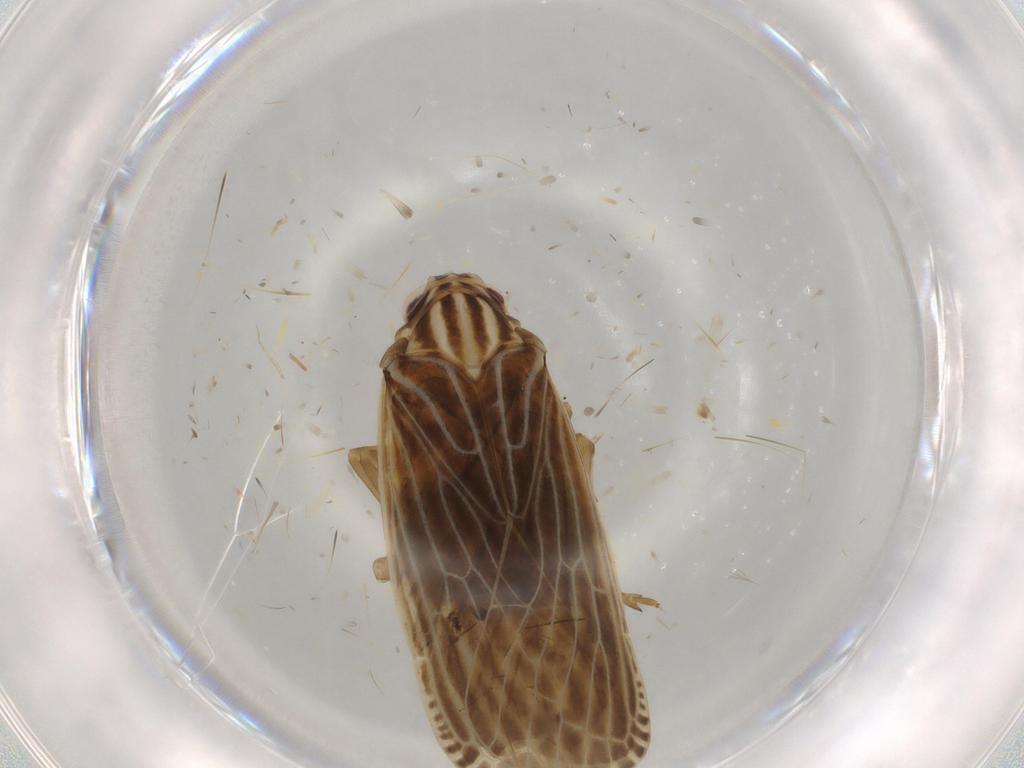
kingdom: Animalia
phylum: Arthropoda
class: Insecta
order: Hemiptera
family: Cicadellidae
